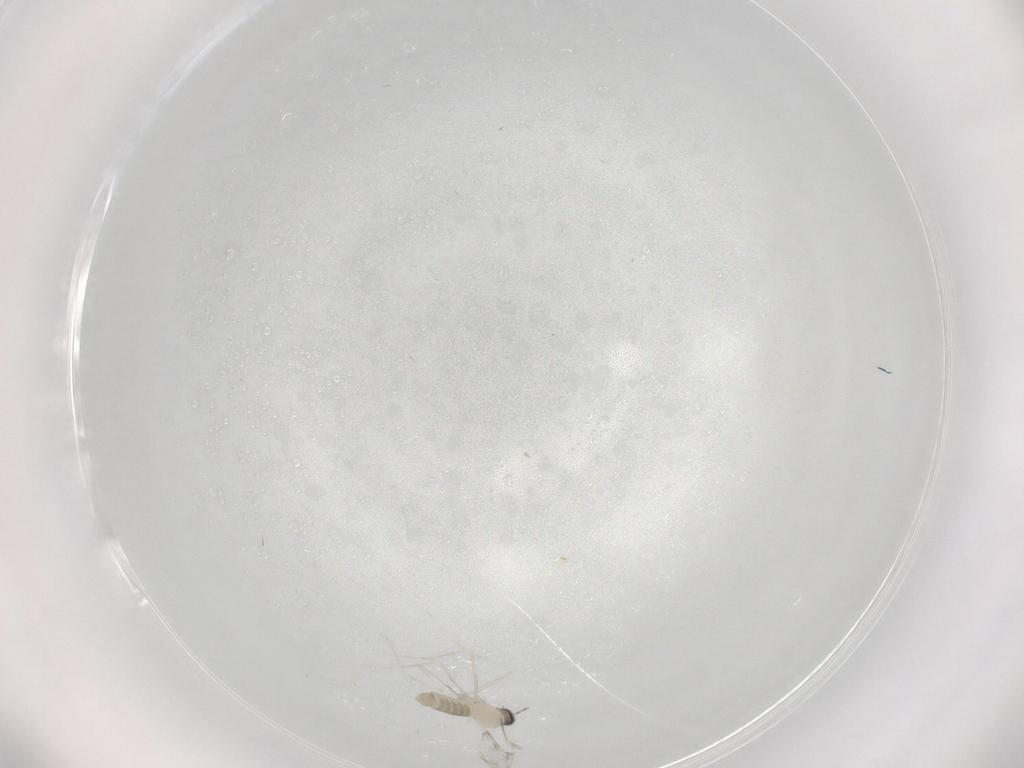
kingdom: Animalia
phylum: Arthropoda
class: Insecta
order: Diptera
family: Cecidomyiidae
